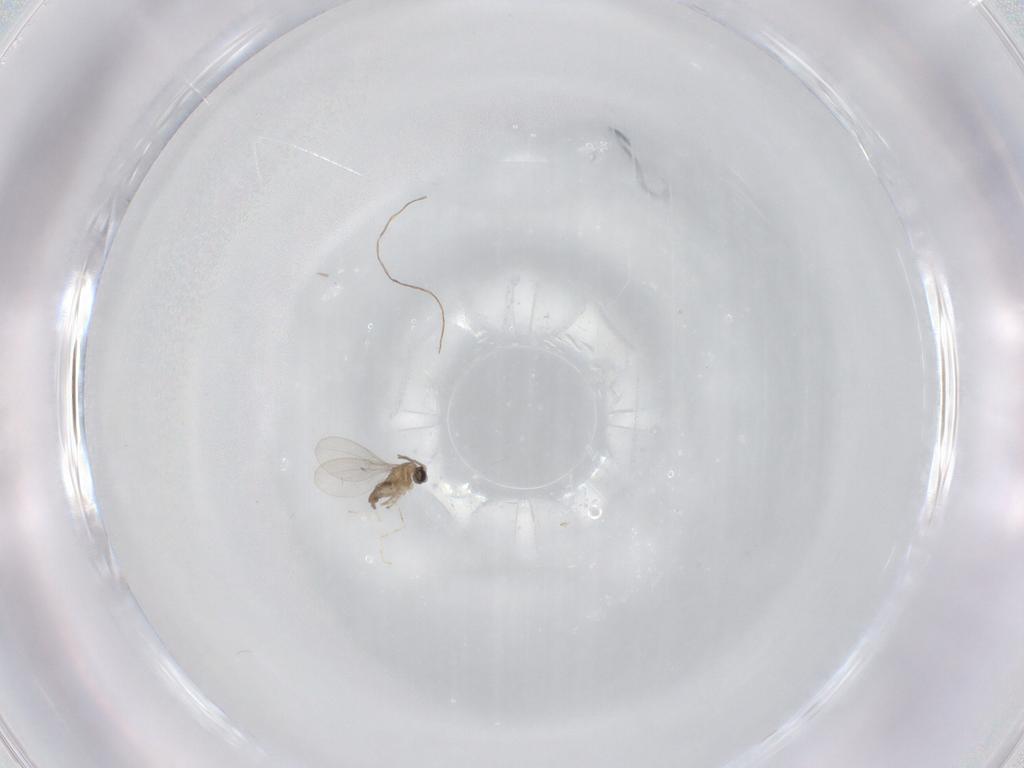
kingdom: Animalia
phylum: Arthropoda
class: Insecta
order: Diptera
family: Cecidomyiidae
